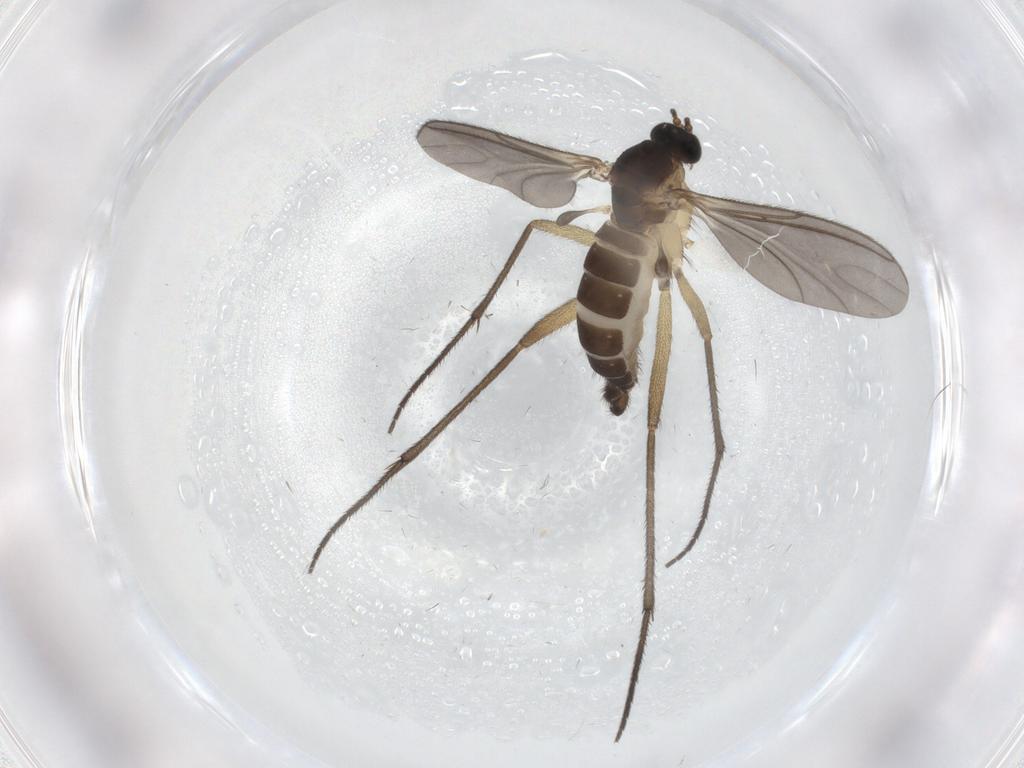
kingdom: Animalia
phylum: Arthropoda
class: Insecta
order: Diptera
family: Sciaridae
